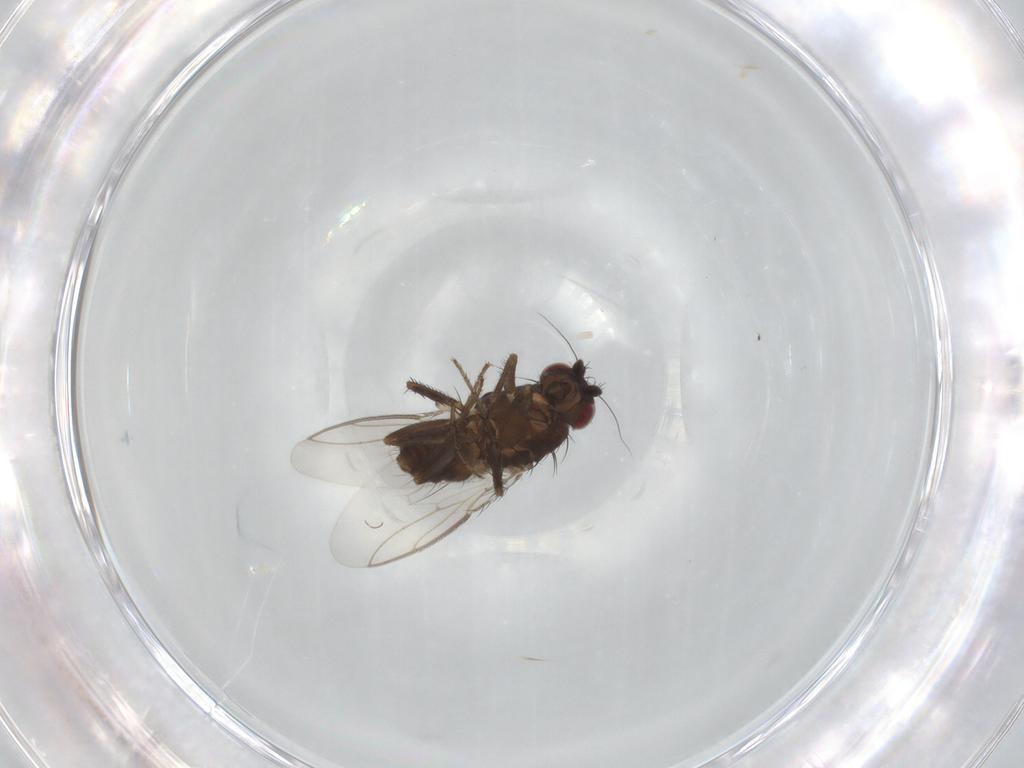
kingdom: Animalia
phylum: Arthropoda
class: Insecta
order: Diptera
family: Sphaeroceridae
